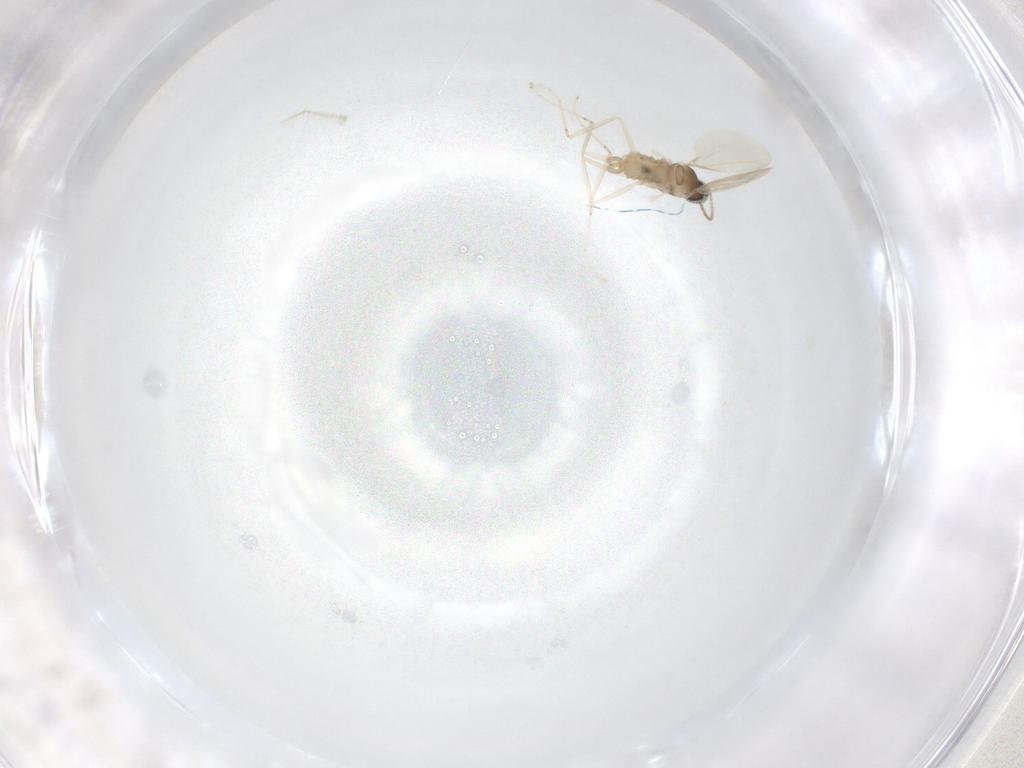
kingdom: Animalia
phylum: Arthropoda
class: Insecta
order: Diptera
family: Cecidomyiidae
